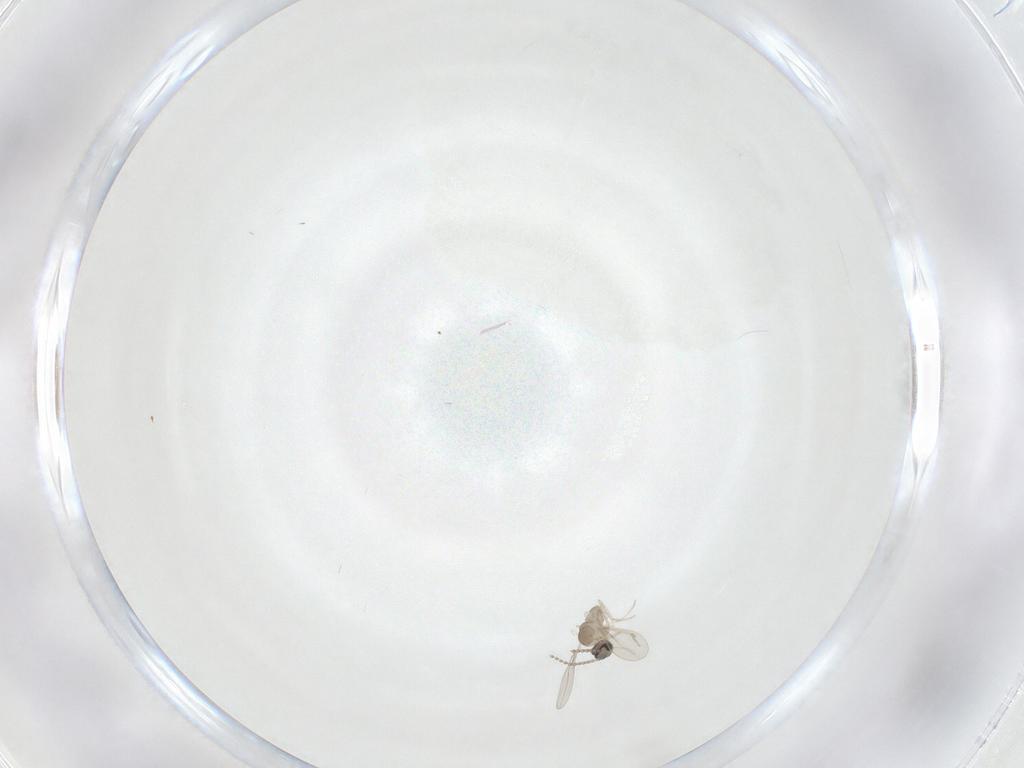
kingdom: Animalia
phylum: Arthropoda
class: Insecta
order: Diptera
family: Cecidomyiidae
